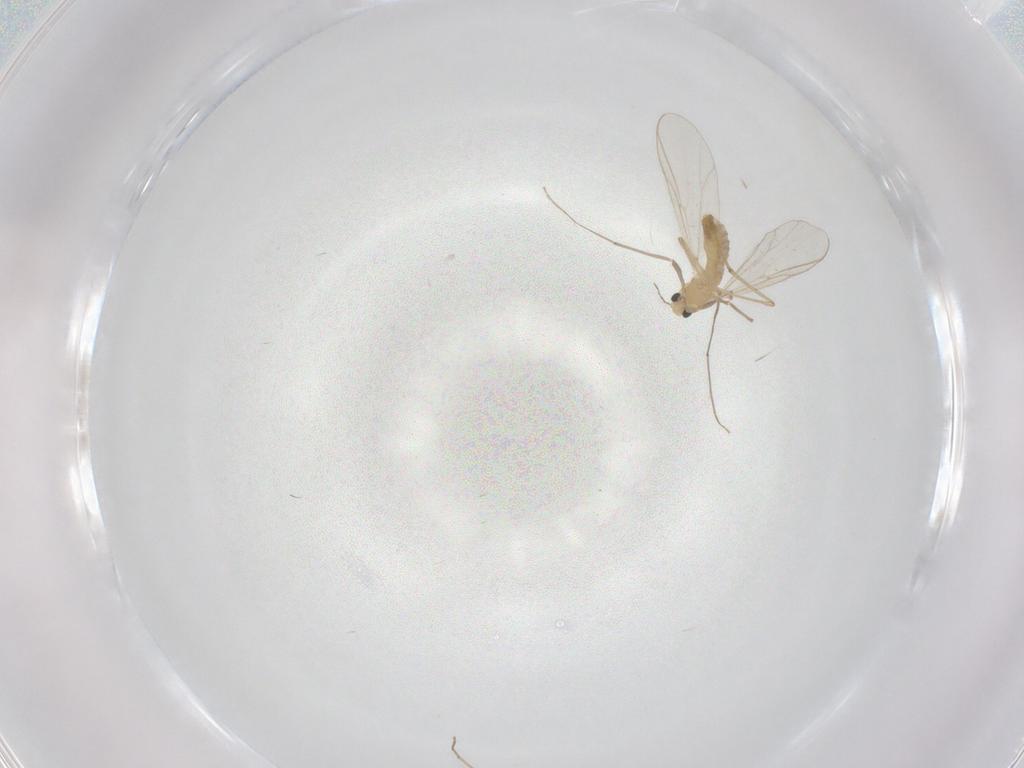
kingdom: Animalia
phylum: Arthropoda
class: Insecta
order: Diptera
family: Chironomidae
